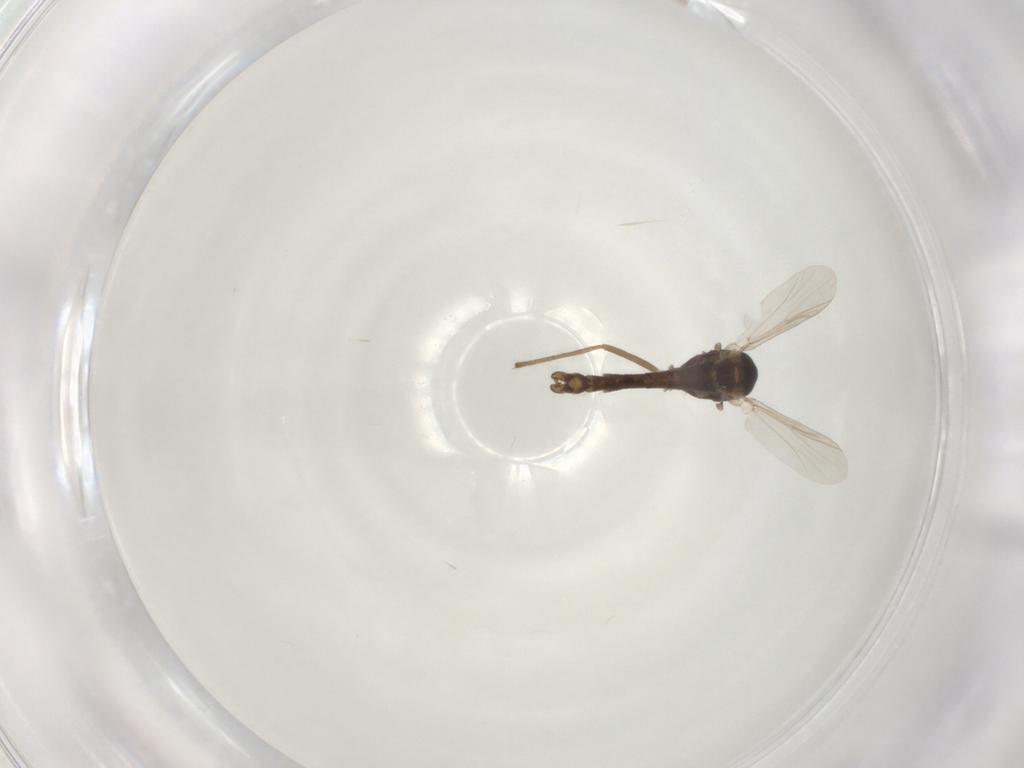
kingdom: Animalia
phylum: Arthropoda
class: Insecta
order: Diptera
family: Chironomidae
